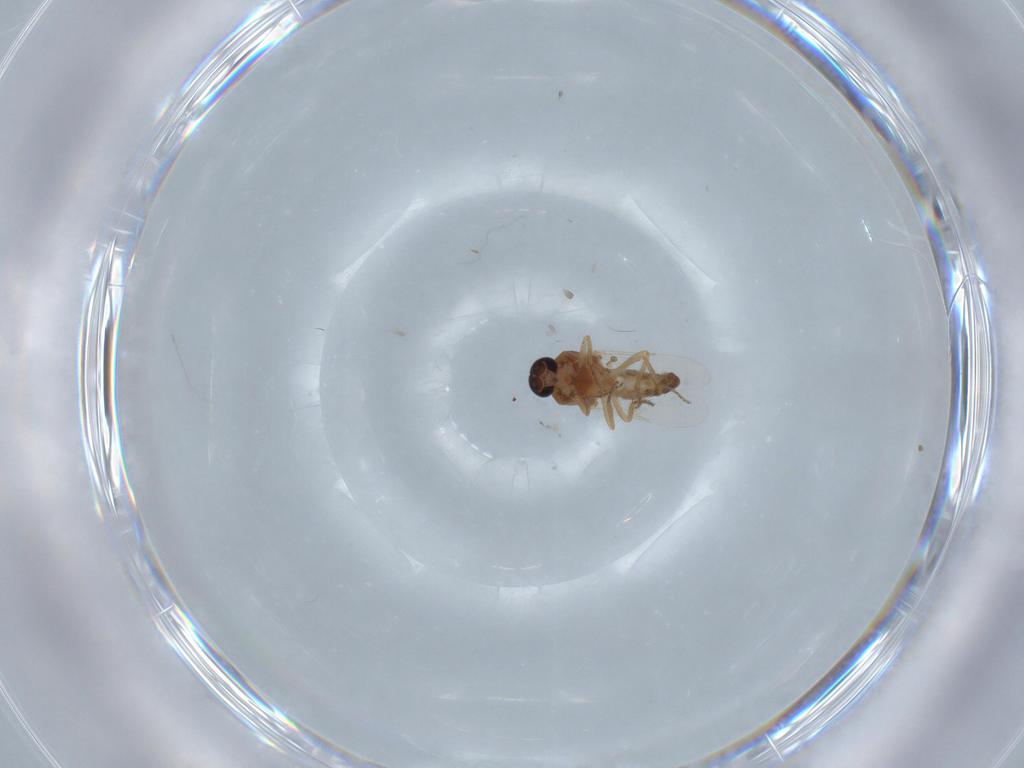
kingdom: Animalia
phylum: Arthropoda
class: Insecta
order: Diptera
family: Ceratopogonidae
